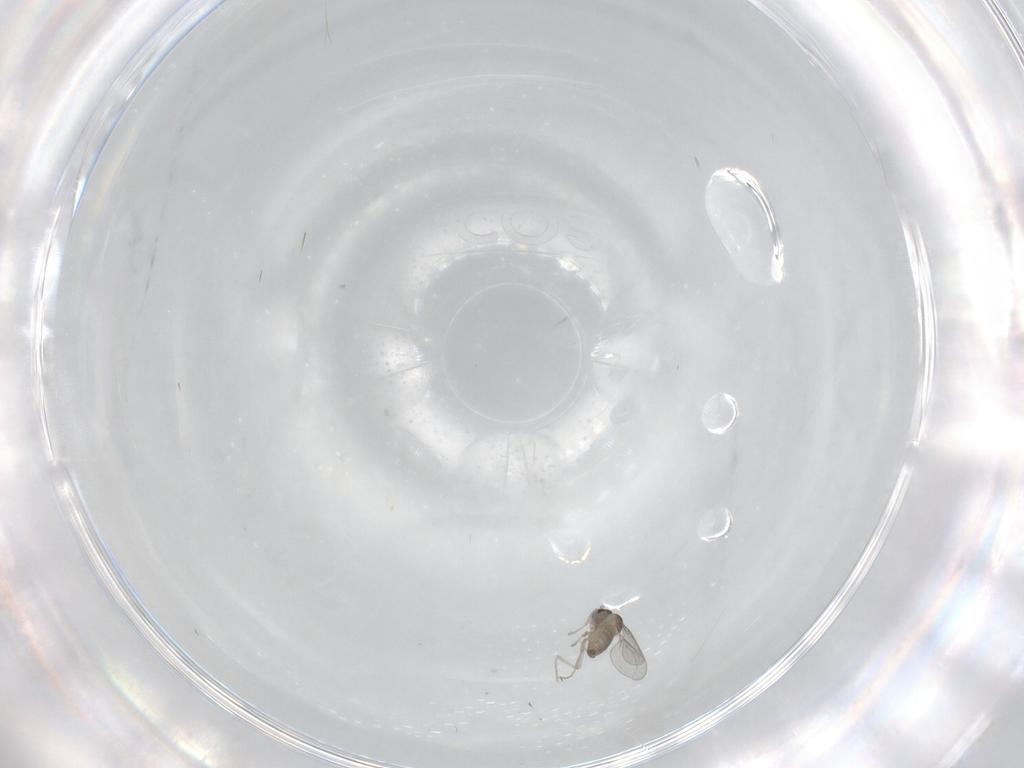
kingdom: Animalia
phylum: Arthropoda
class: Insecta
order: Diptera
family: Cecidomyiidae
